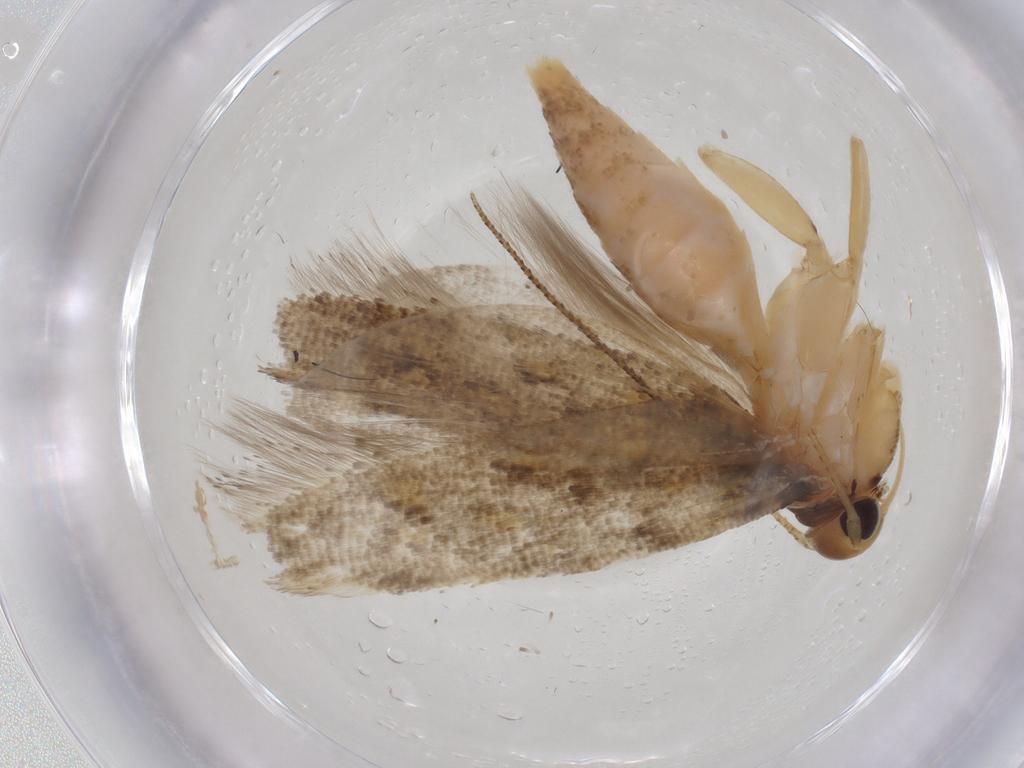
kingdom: Animalia
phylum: Arthropoda
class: Insecta
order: Lepidoptera
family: Gelechiidae
